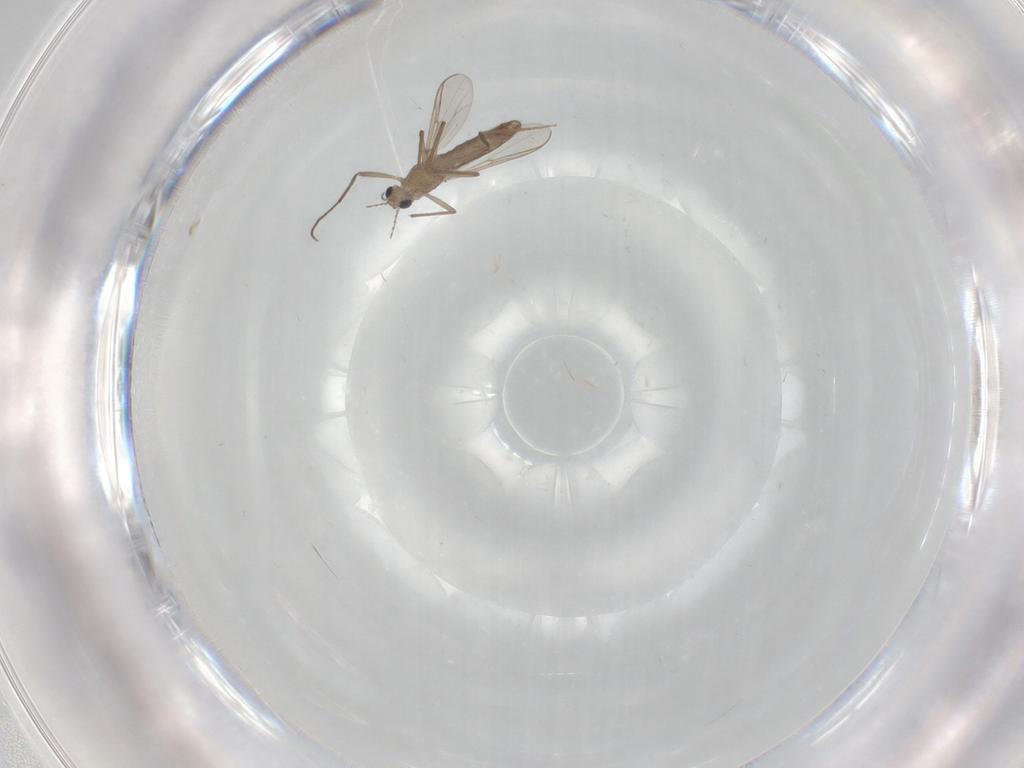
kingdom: Animalia
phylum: Arthropoda
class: Insecta
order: Diptera
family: Chironomidae
